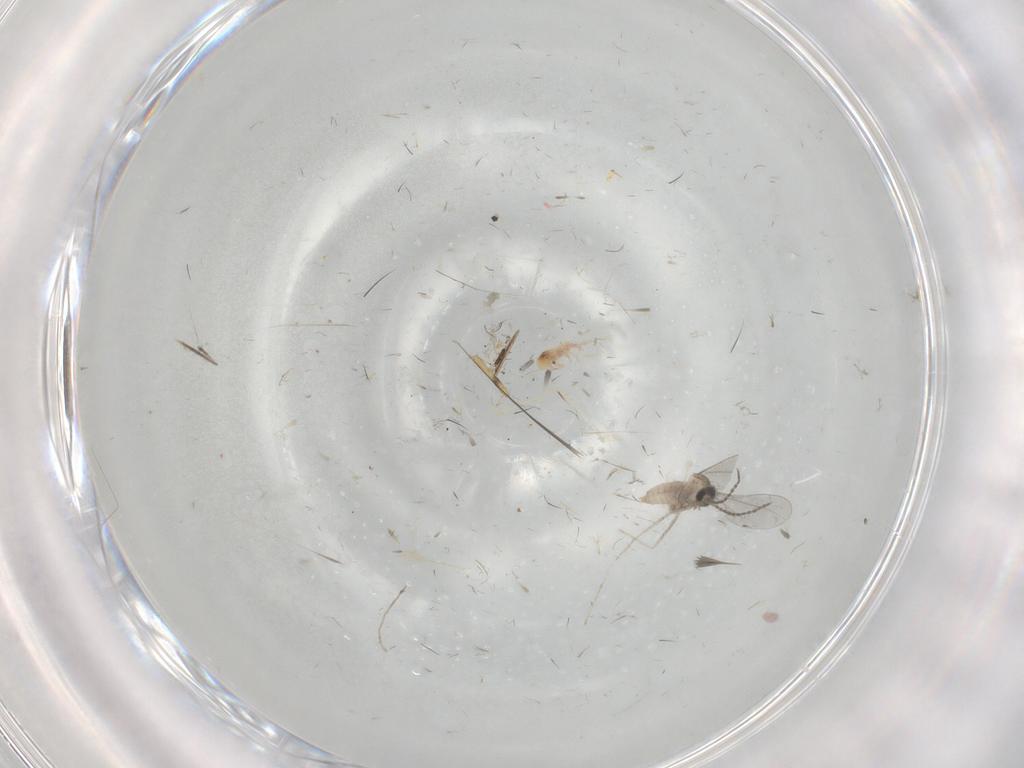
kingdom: Animalia
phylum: Arthropoda
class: Insecta
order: Diptera
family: Cecidomyiidae
